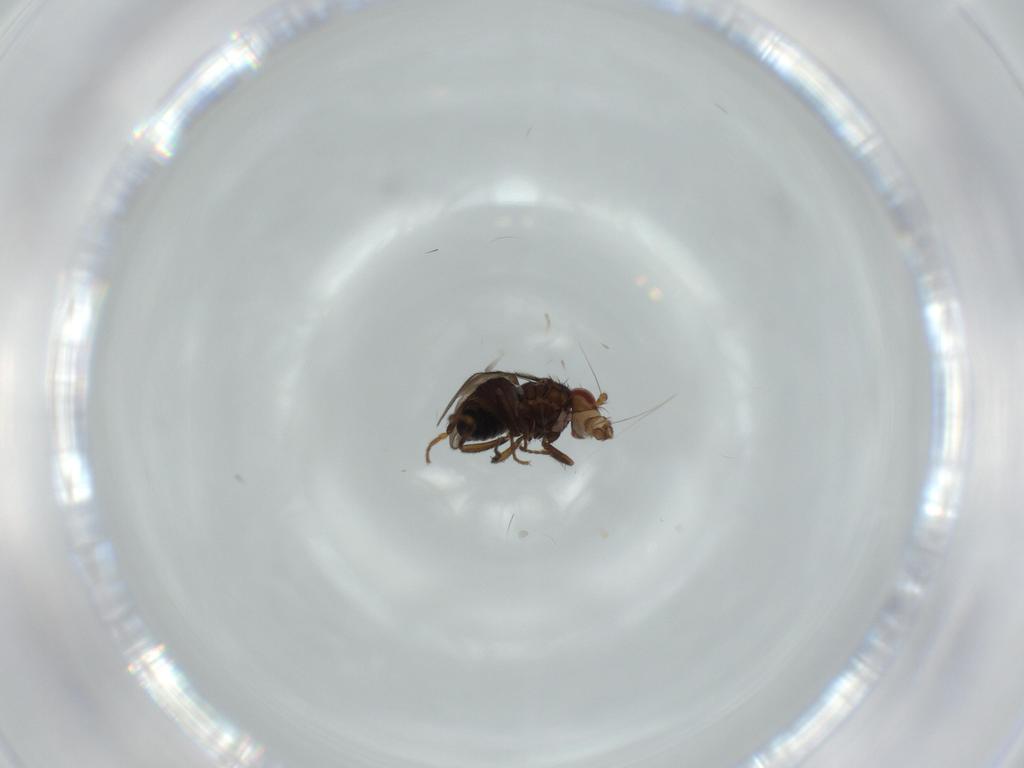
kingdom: Animalia
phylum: Arthropoda
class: Insecta
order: Diptera
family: Sphaeroceridae
